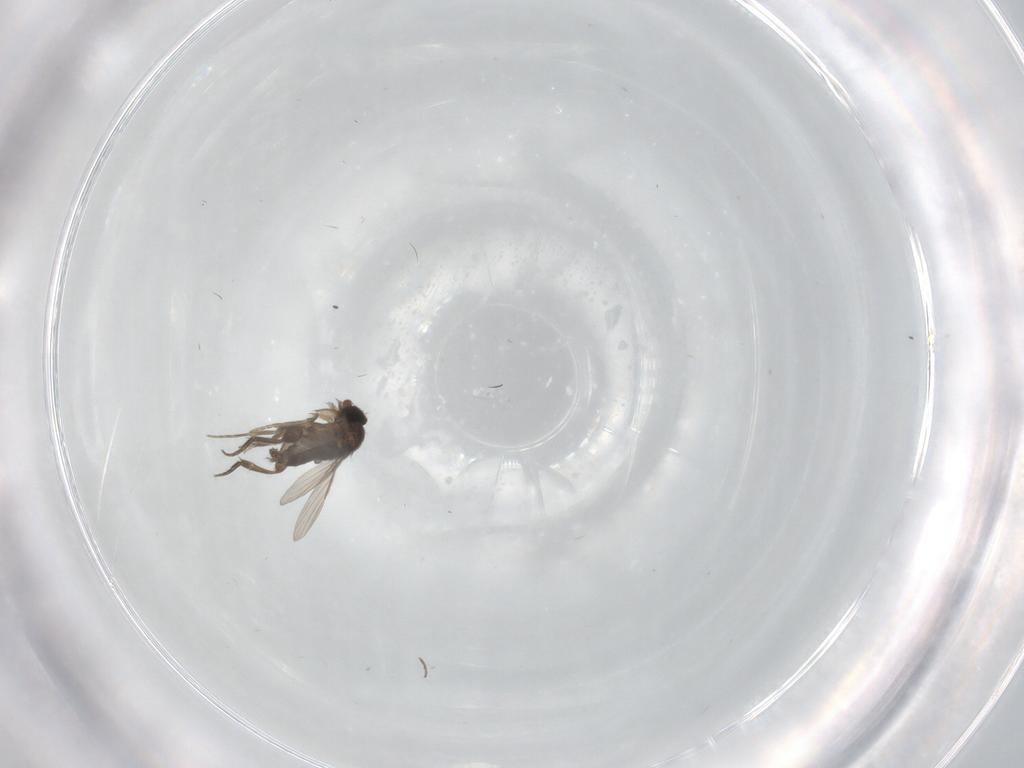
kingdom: Animalia
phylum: Arthropoda
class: Insecta
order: Diptera
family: Phoridae
